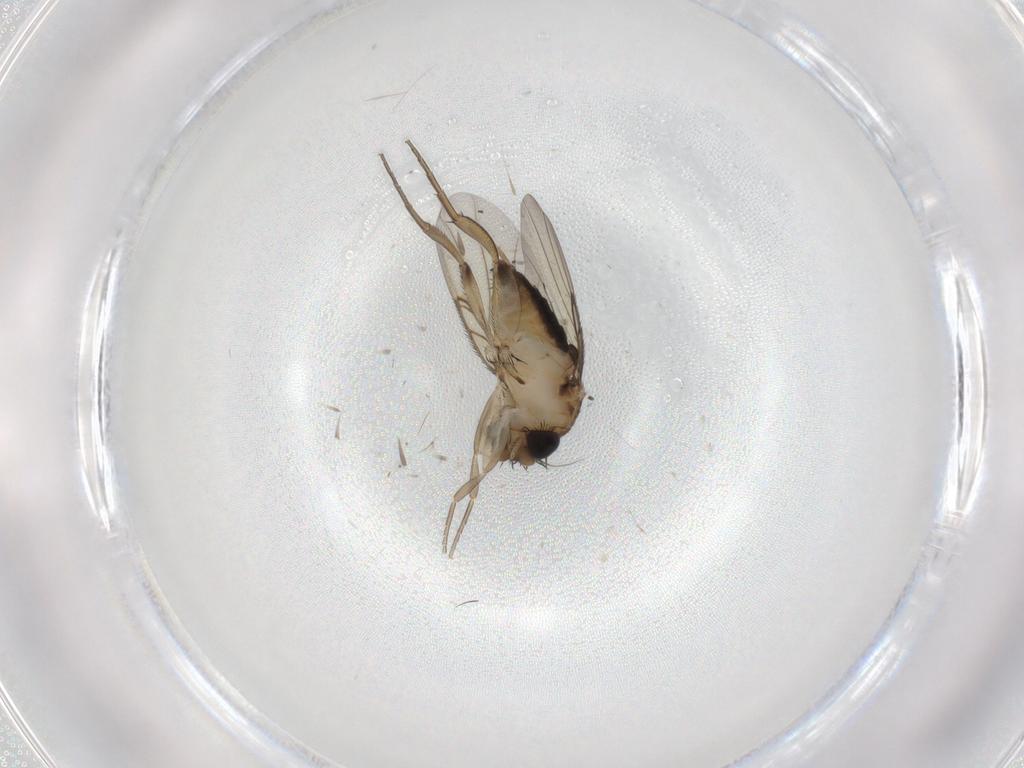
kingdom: Animalia
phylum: Arthropoda
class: Insecta
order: Diptera
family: Phoridae
